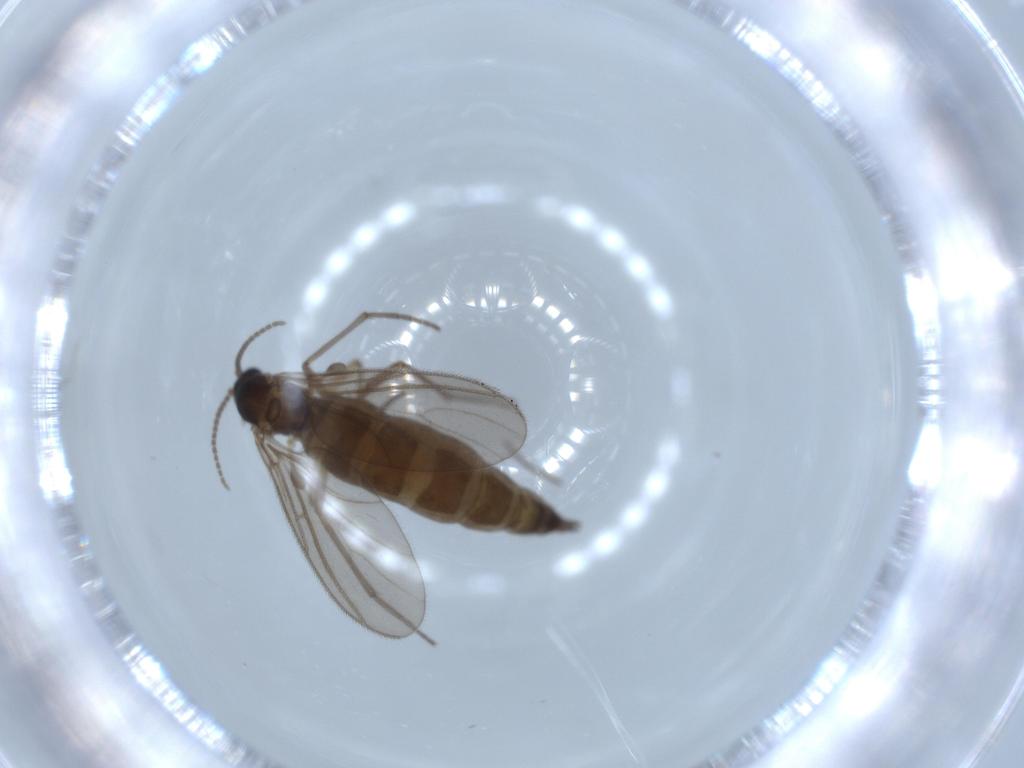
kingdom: Animalia
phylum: Arthropoda
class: Insecta
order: Diptera
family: Sciaridae
